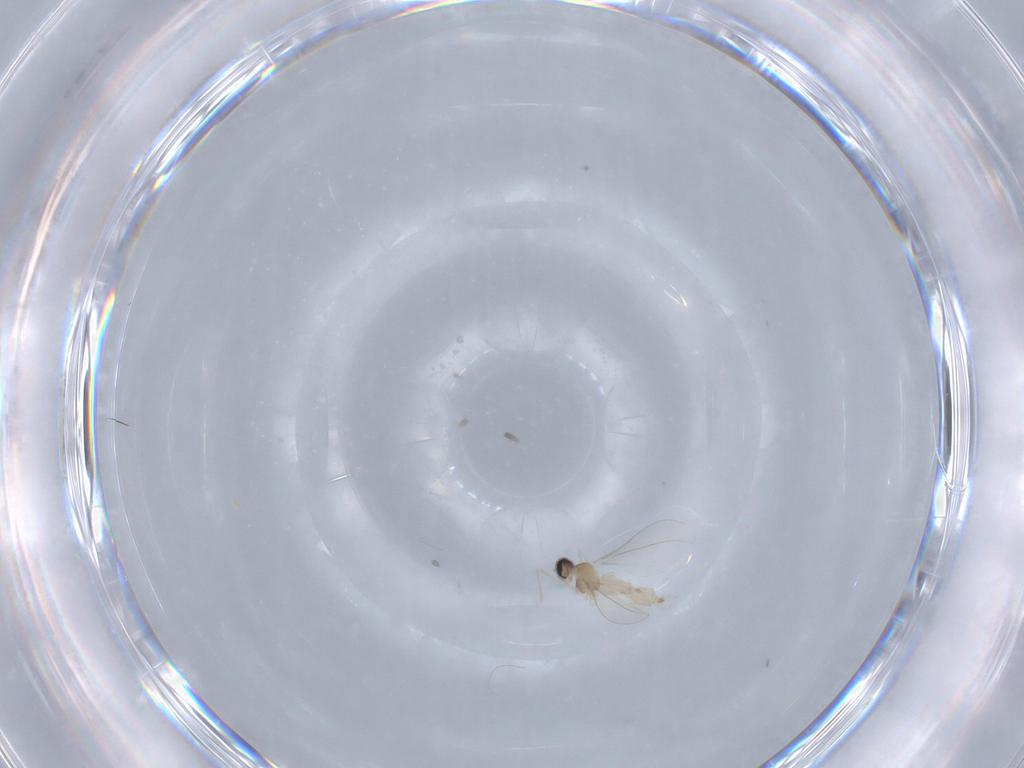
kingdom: Animalia
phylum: Arthropoda
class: Insecta
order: Diptera
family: Cecidomyiidae
